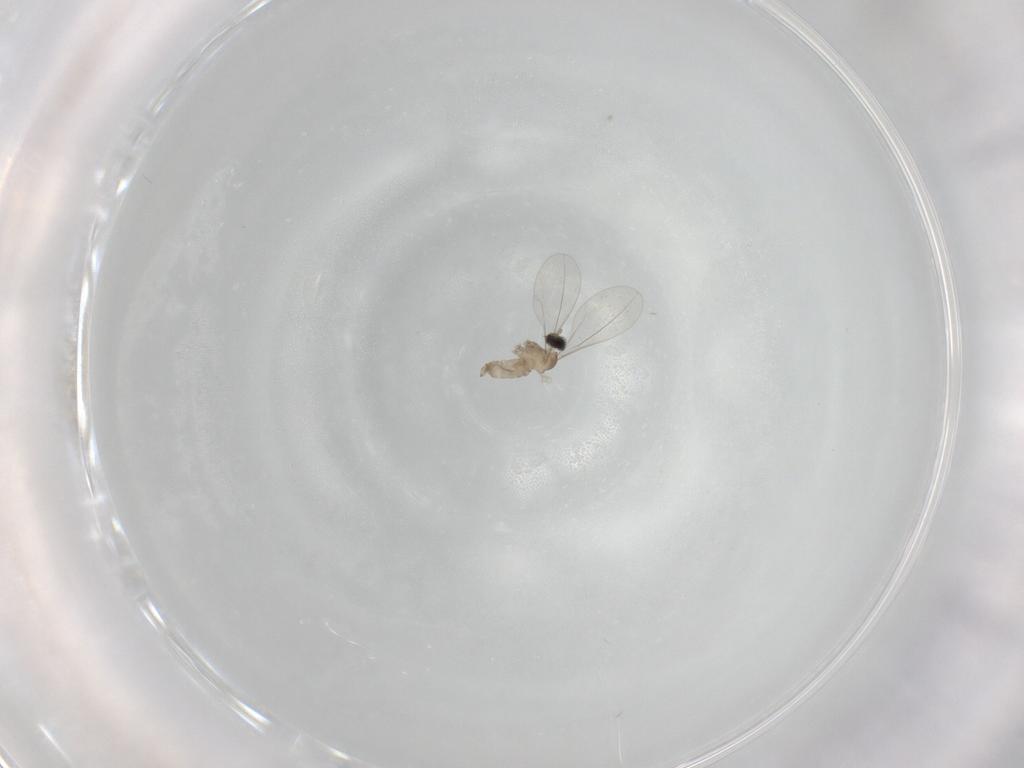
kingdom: Animalia
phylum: Arthropoda
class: Insecta
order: Diptera
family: Cecidomyiidae
